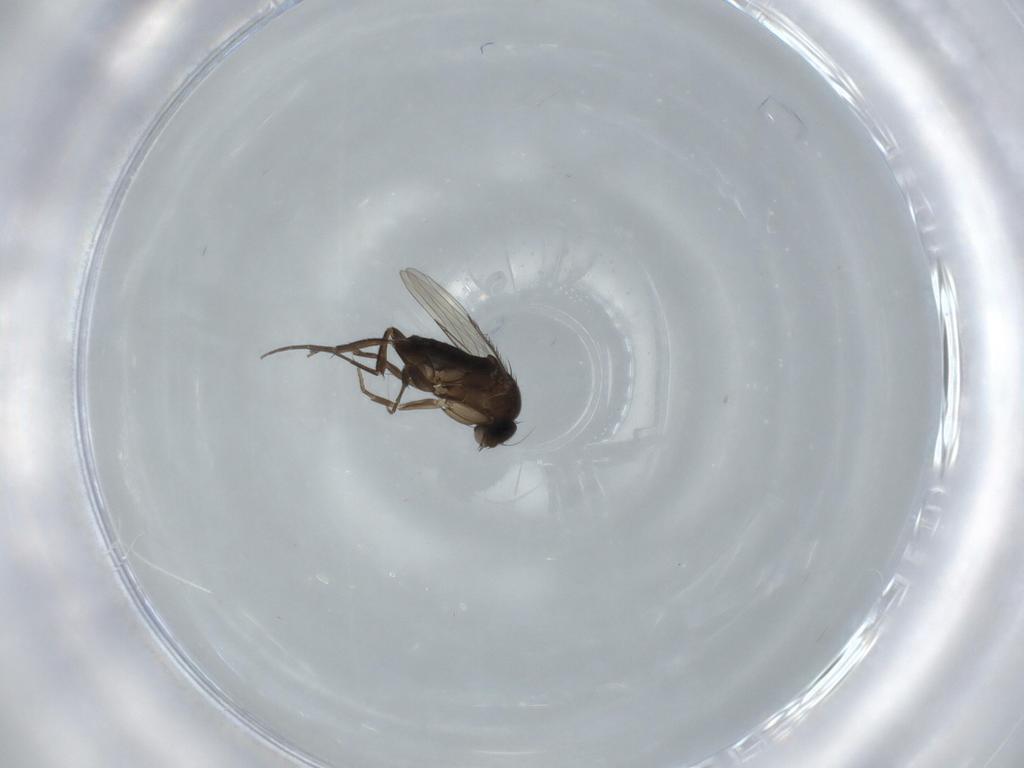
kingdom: Animalia
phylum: Arthropoda
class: Insecta
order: Diptera
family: Phoridae
